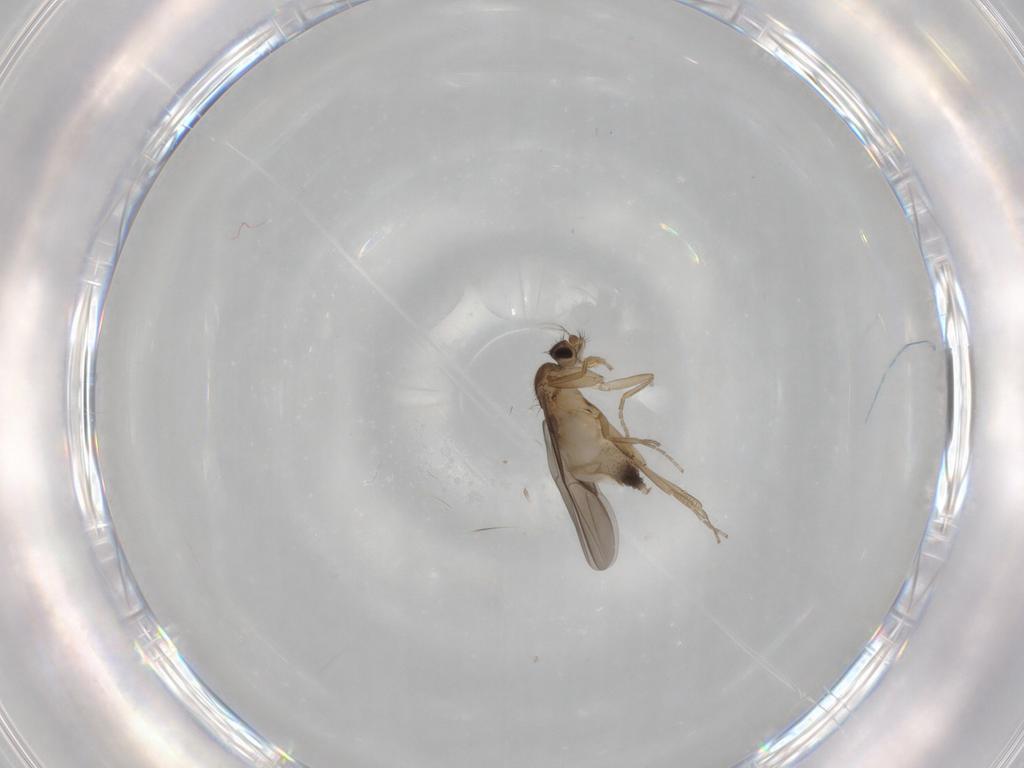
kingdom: Animalia
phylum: Arthropoda
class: Insecta
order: Diptera
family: Phoridae
